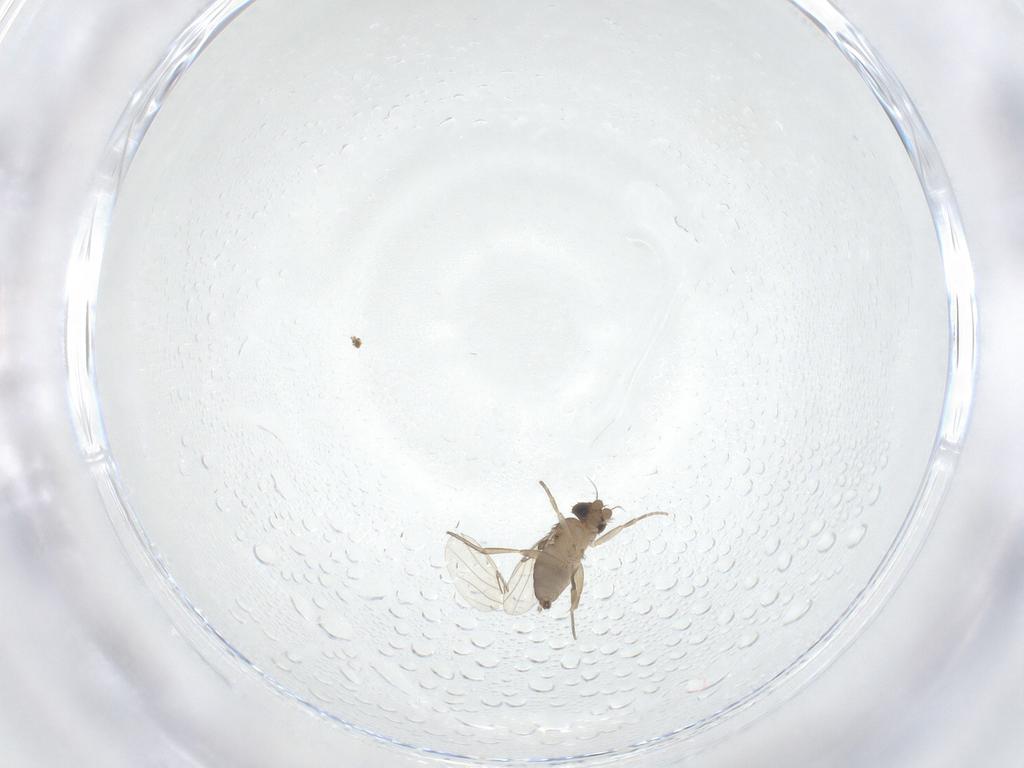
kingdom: Animalia
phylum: Arthropoda
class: Insecta
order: Diptera
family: Phoridae
